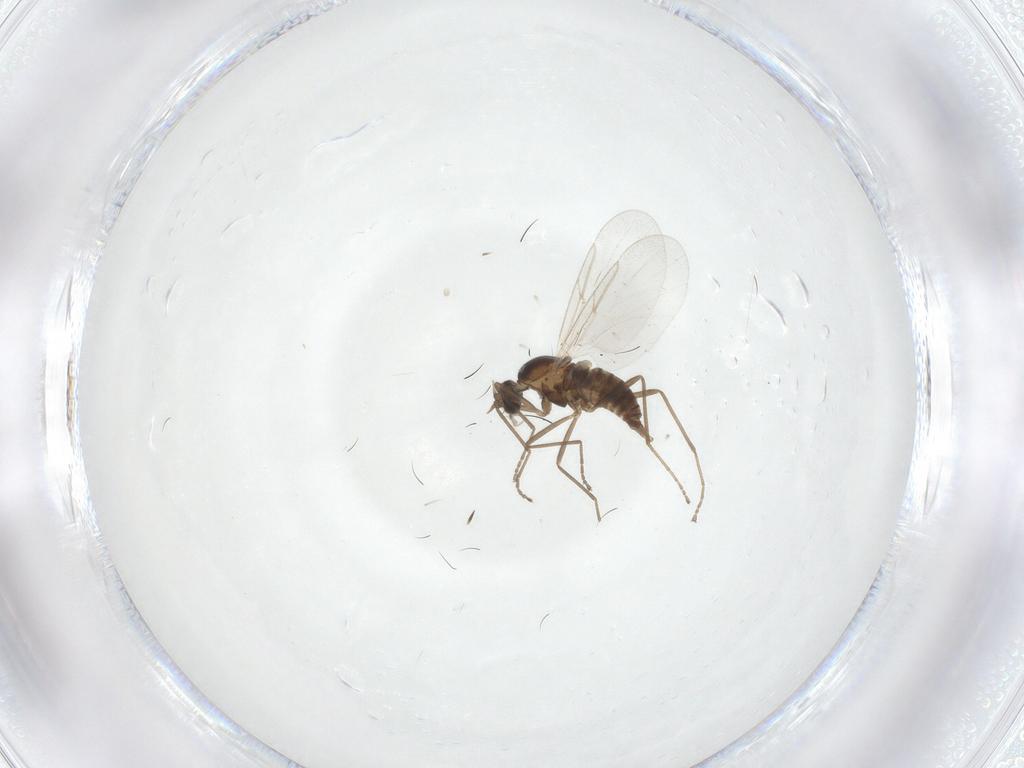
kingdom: Animalia
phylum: Arthropoda
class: Insecta
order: Diptera
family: Cecidomyiidae
